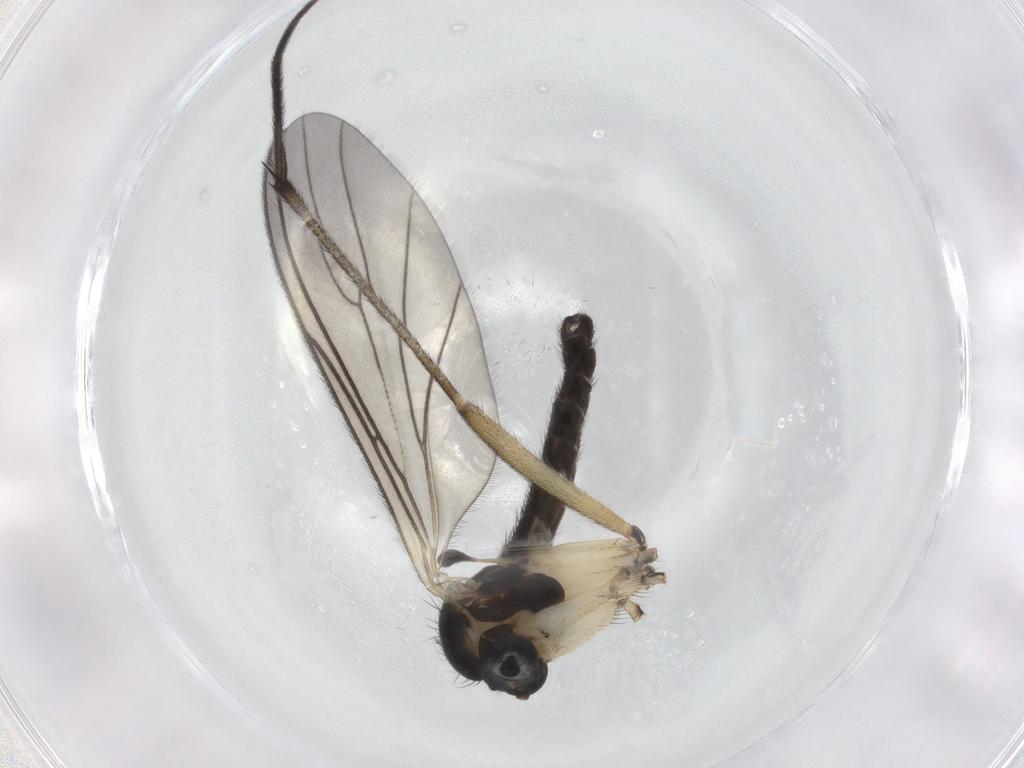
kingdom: Animalia
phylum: Arthropoda
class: Insecta
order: Diptera
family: Sciaridae
